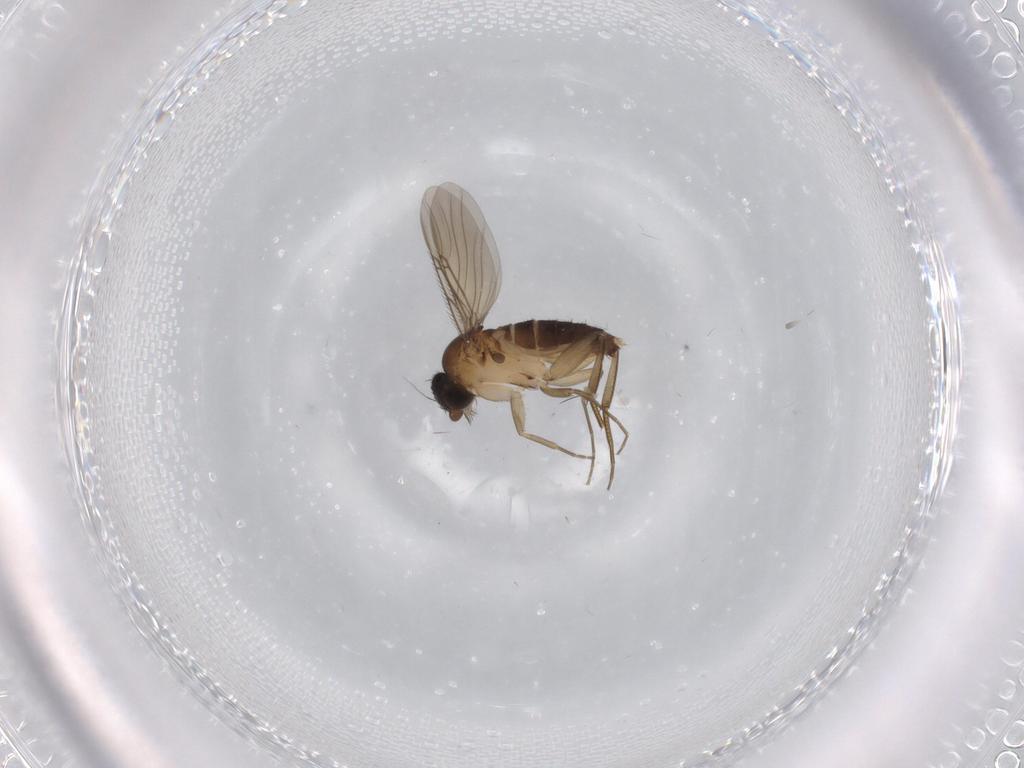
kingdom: Animalia
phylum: Arthropoda
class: Insecta
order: Diptera
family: Phoridae
